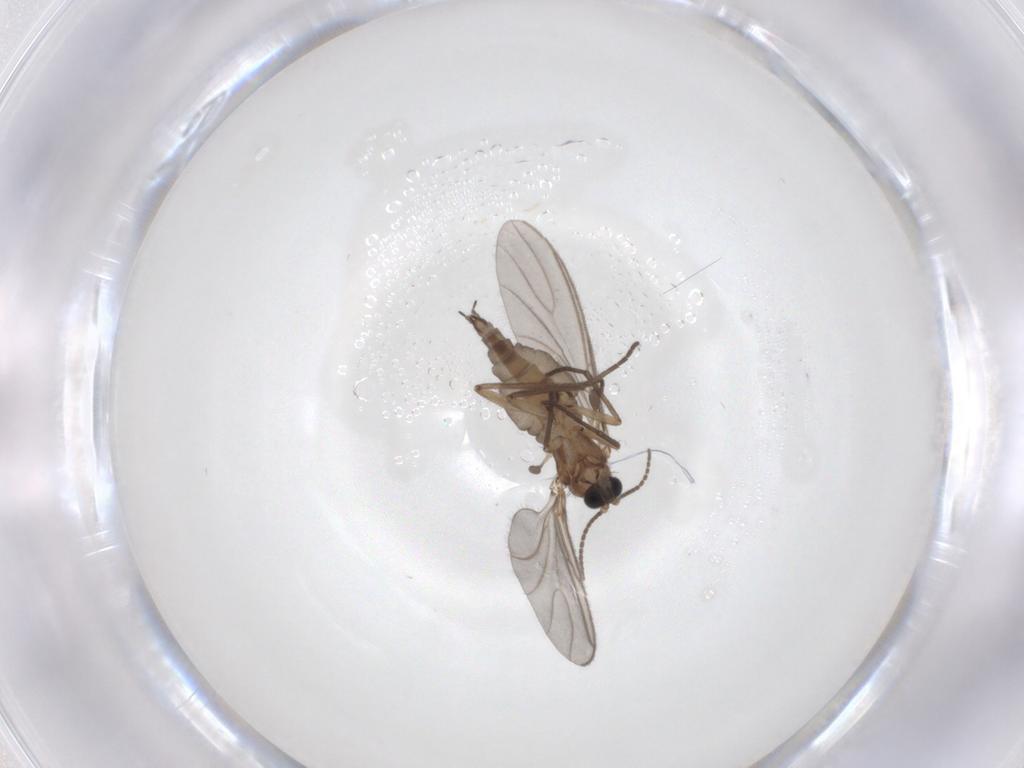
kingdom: Animalia
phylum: Arthropoda
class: Insecta
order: Diptera
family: Sciaridae
